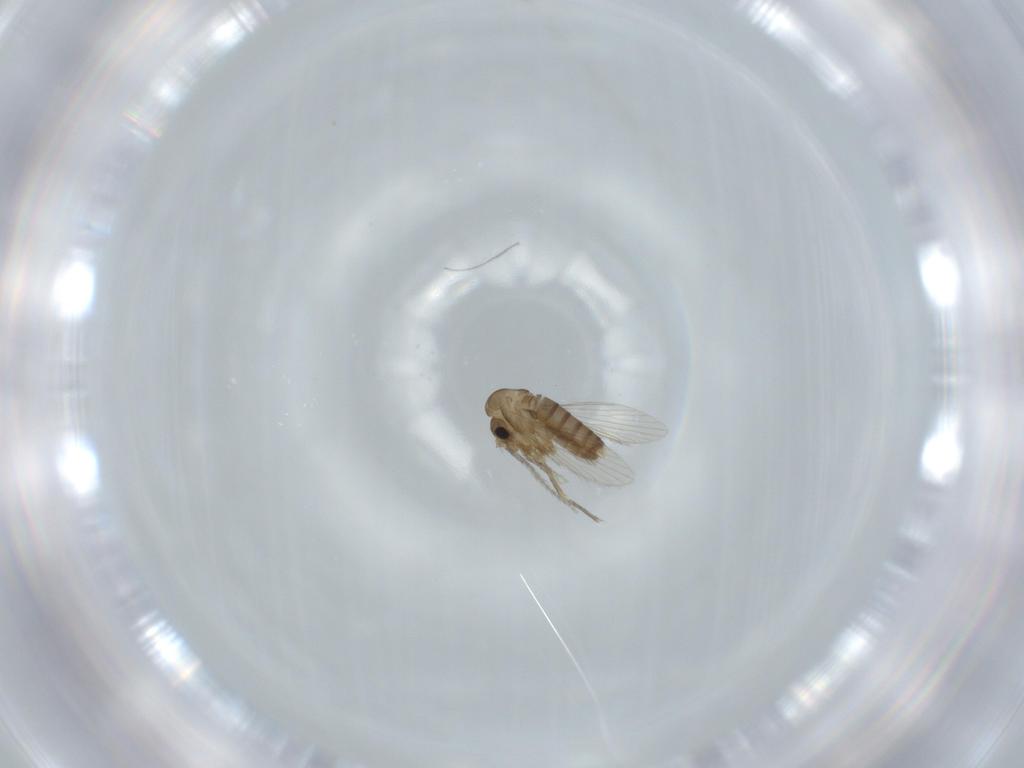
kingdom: Animalia
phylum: Arthropoda
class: Insecta
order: Diptera
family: Psychodidae
